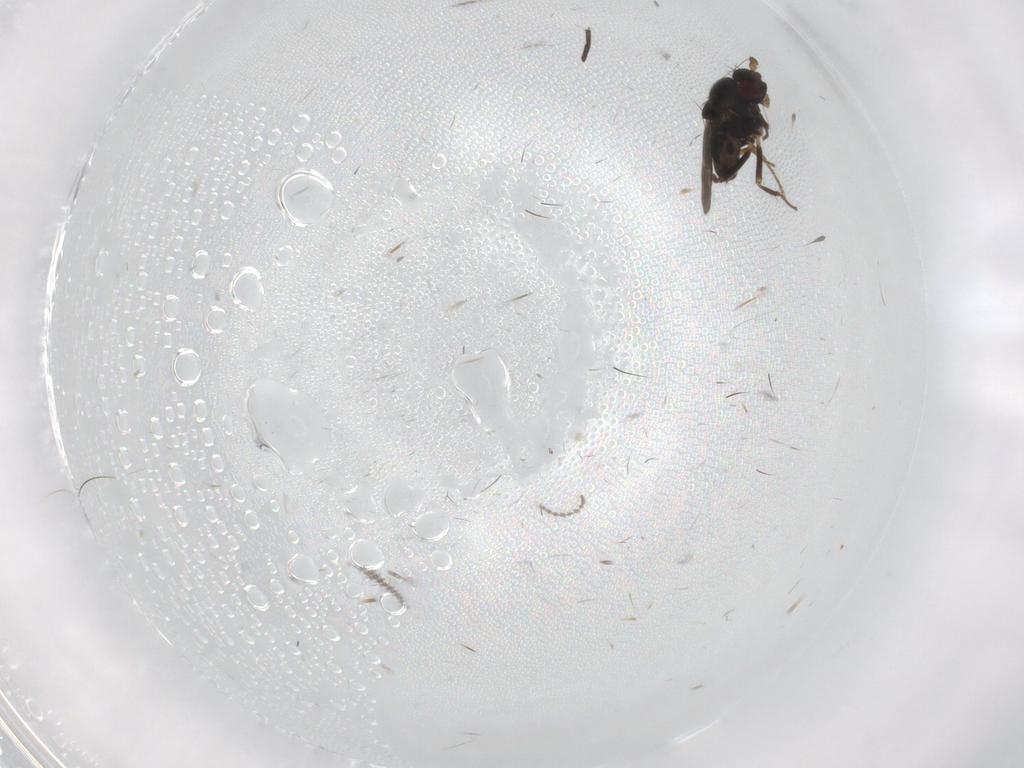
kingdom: Animalia
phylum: Arthropoda
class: Insecta
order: Diptera
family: Sphaeroceridae
